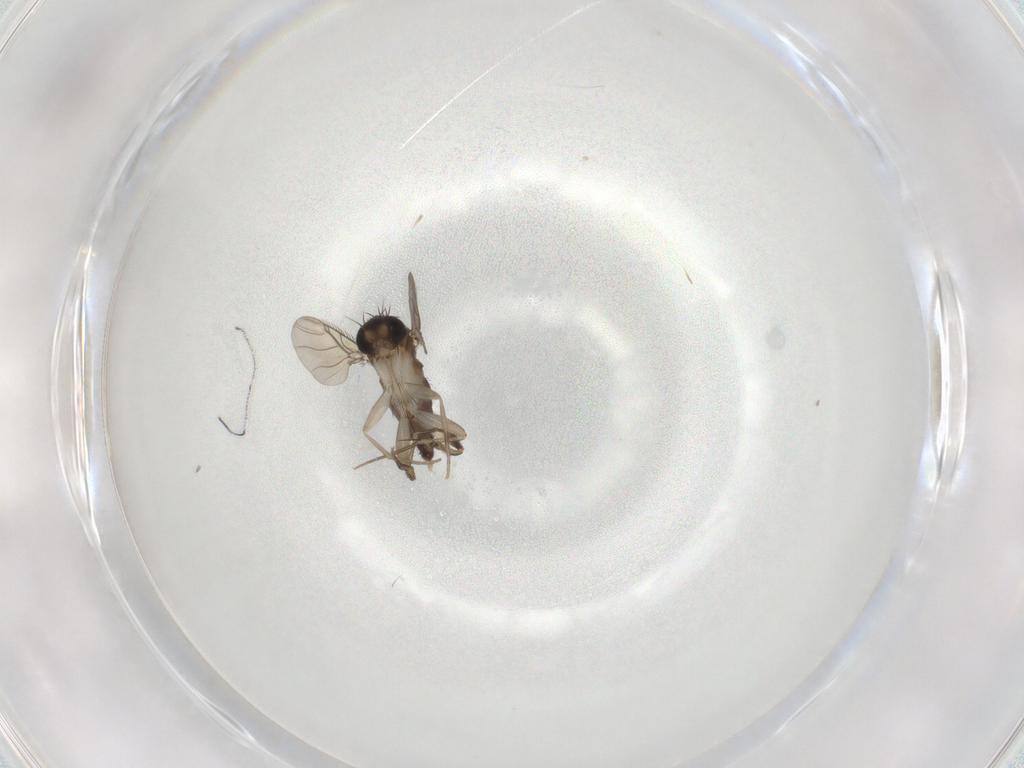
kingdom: Animalia
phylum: Arthropoda
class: Insecta
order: Diptera
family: Phoridae
